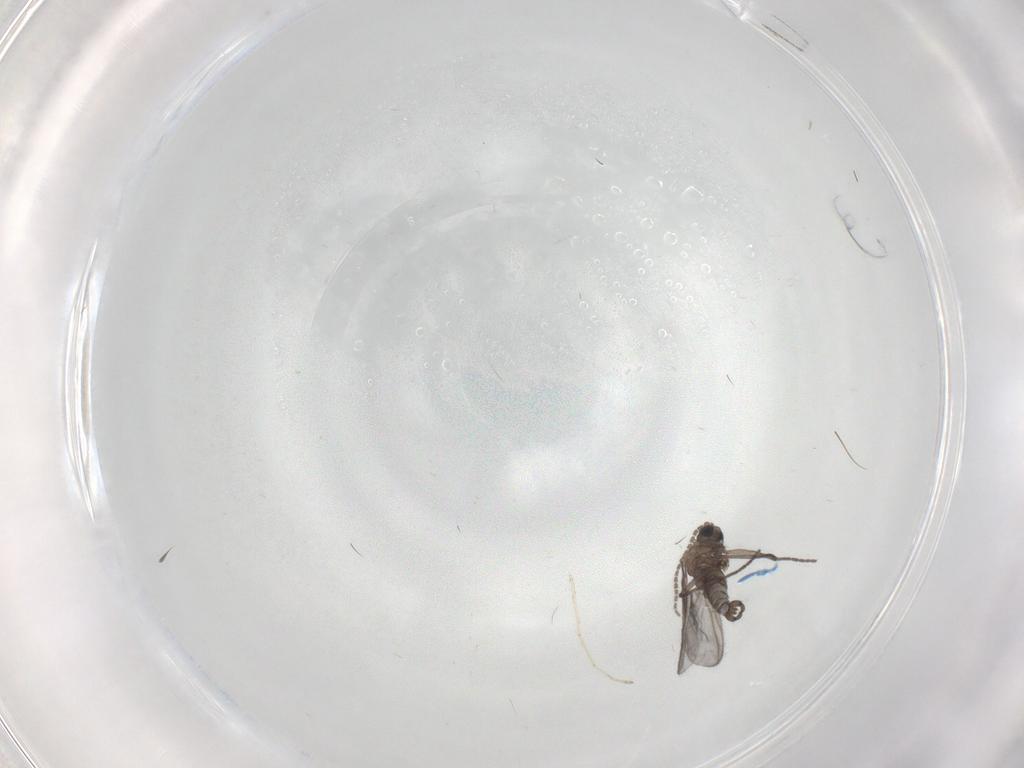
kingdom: Animalia
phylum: Arthropoda
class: Insecta
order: Diptera
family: Sciaridae
